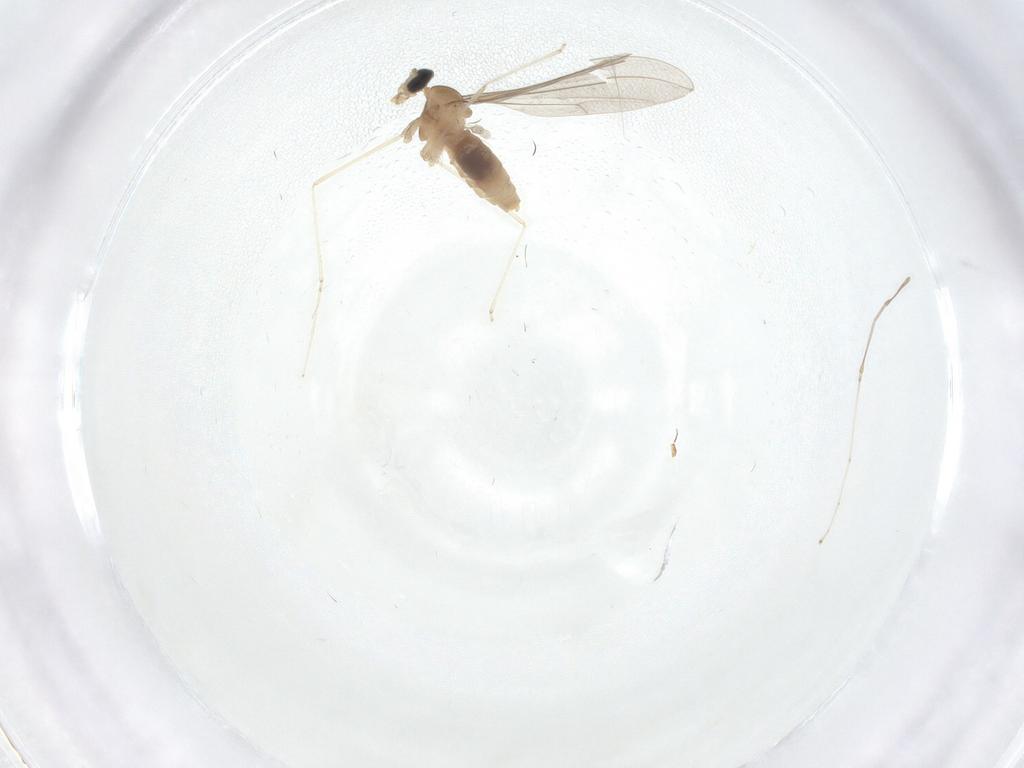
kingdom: Animalia
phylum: Arthropoda
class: Insecta
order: Diptera
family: Cecidomyiidae
